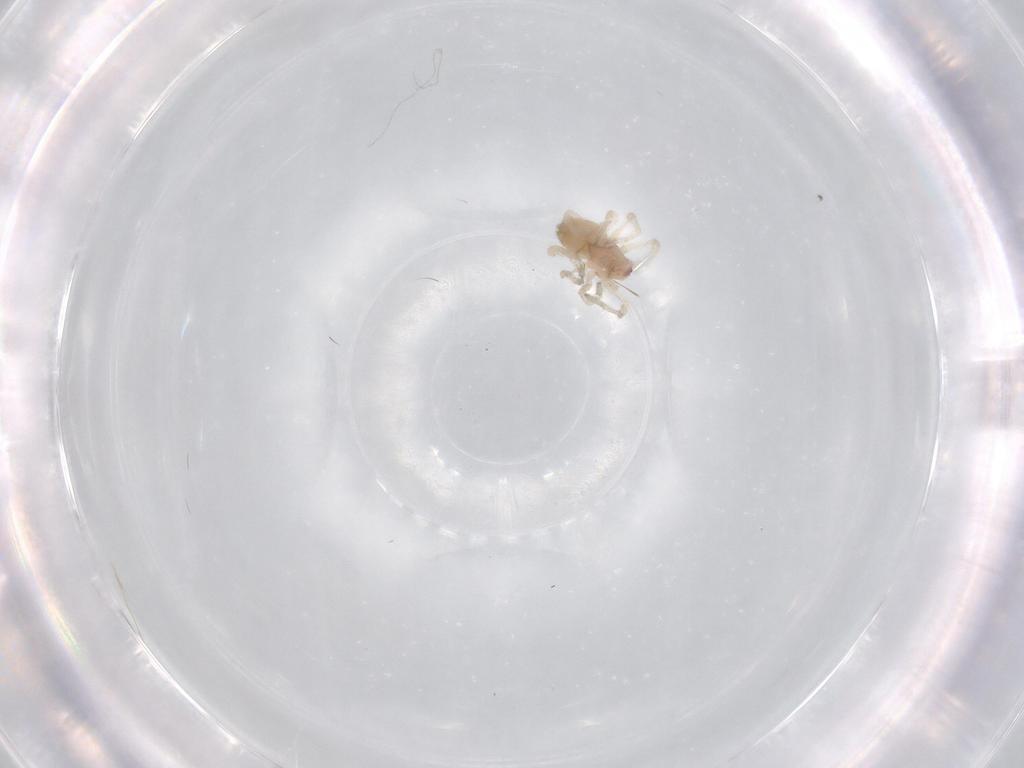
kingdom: Animalia
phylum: Arthropoda
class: Arachnida
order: Araneae
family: Dictynidae
